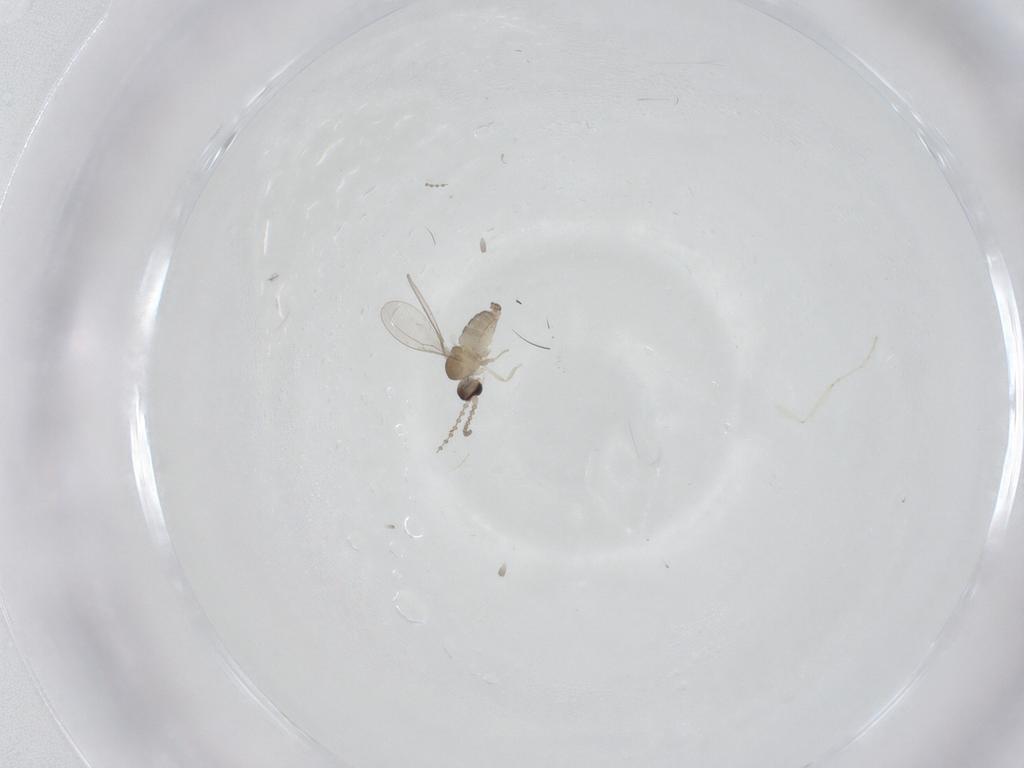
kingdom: Animalia
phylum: Arthropoda
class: Insecta
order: Diptera
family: Cecidomyiidae
